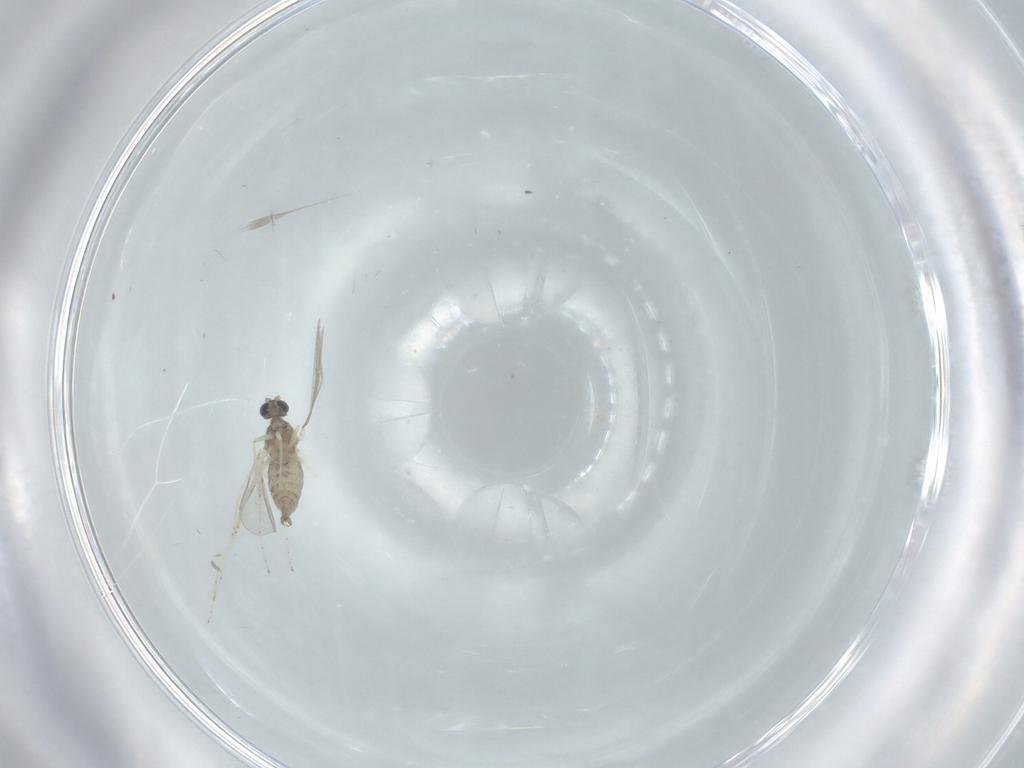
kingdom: Animalia
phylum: Arthropoda
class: Insecta
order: Diptera
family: Cecidomyiidae
